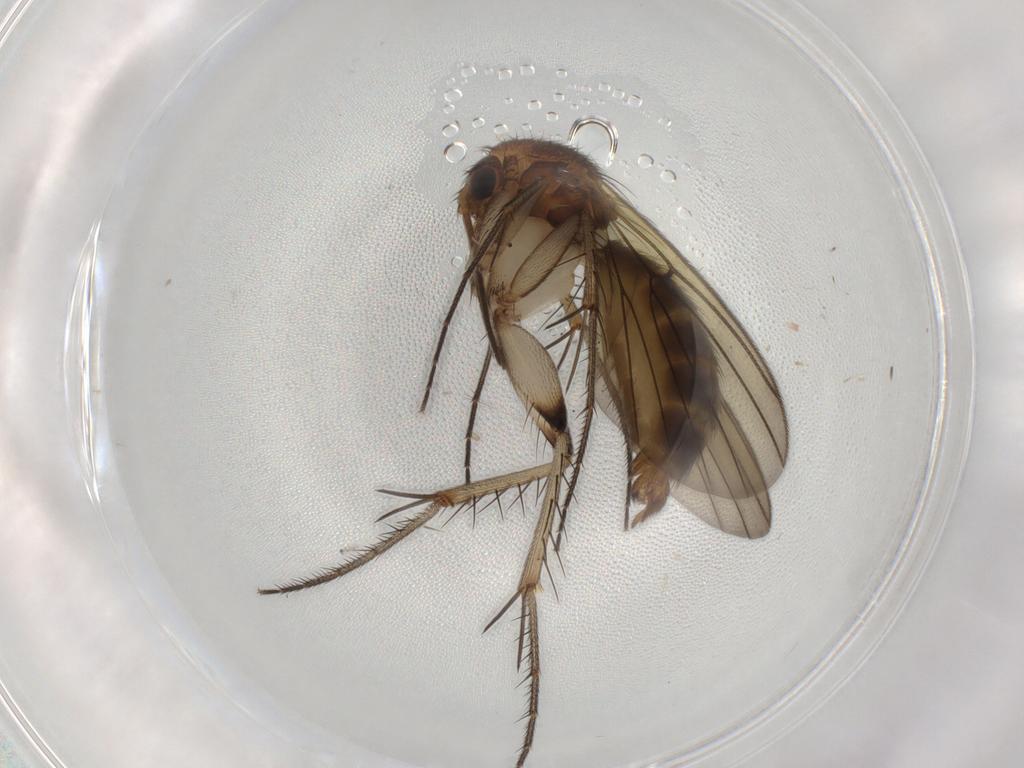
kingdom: Animalia
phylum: Arthropoda
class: Insecta
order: Diptera
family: Mycetophilidae
